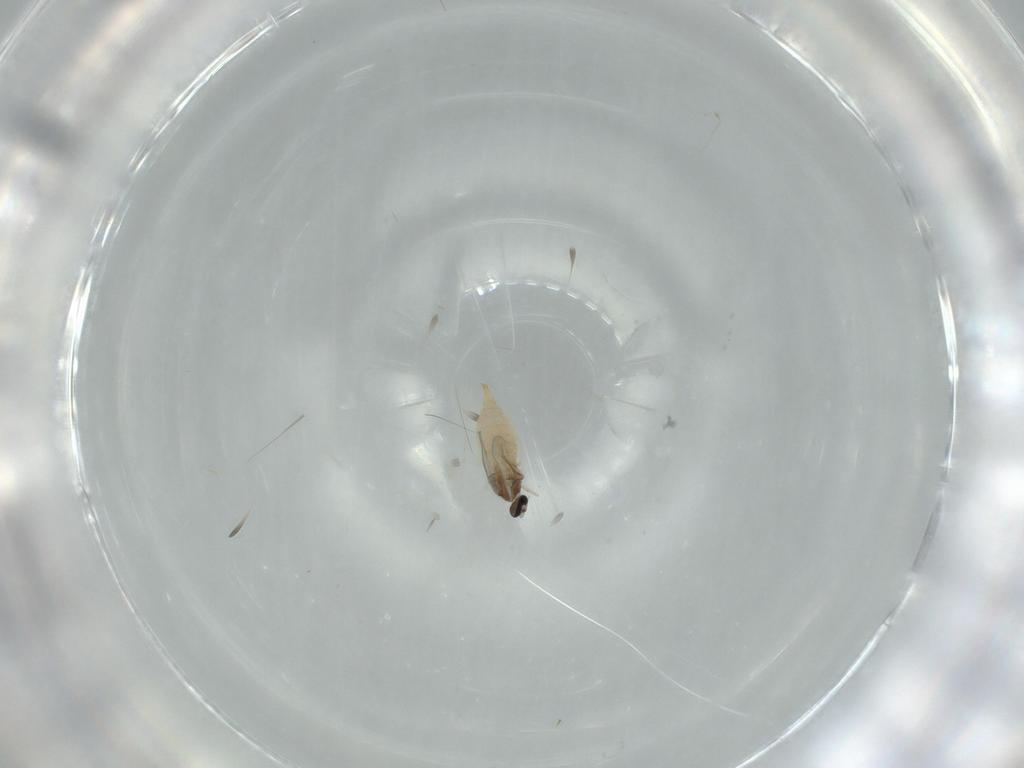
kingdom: Animalia
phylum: Arthropoda
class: Insecta
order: Diptera
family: Cecidomyiidae
